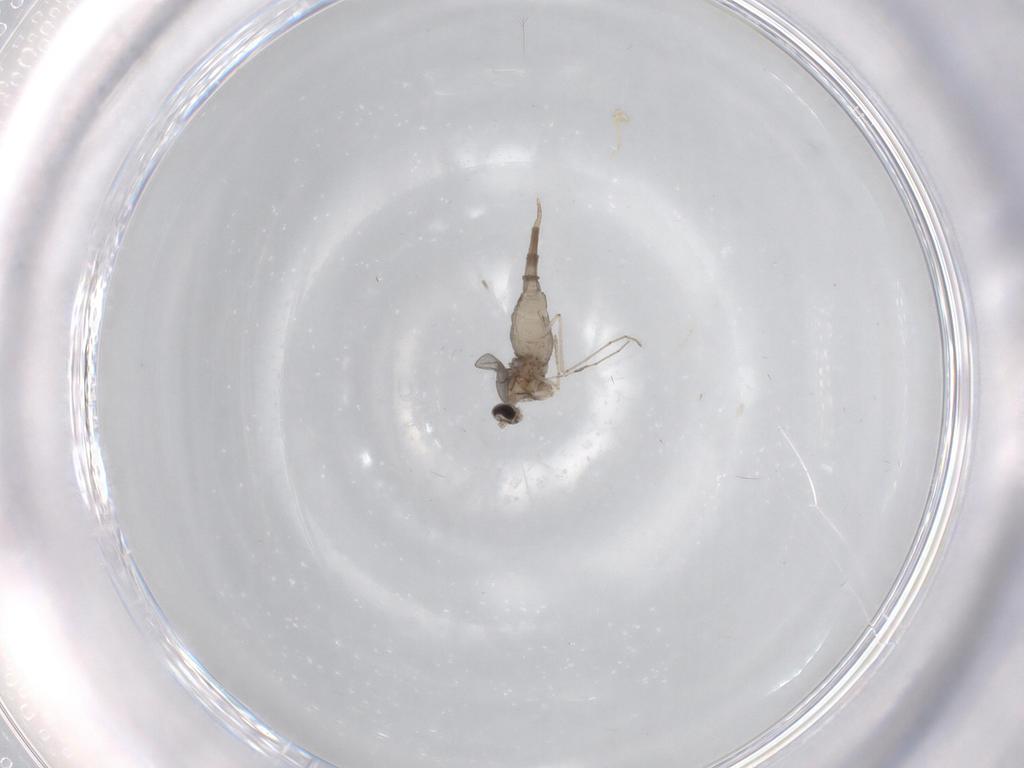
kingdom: Animalia
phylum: Arthropoda
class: Insecta
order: Diptera
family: Cecidomyiidae
